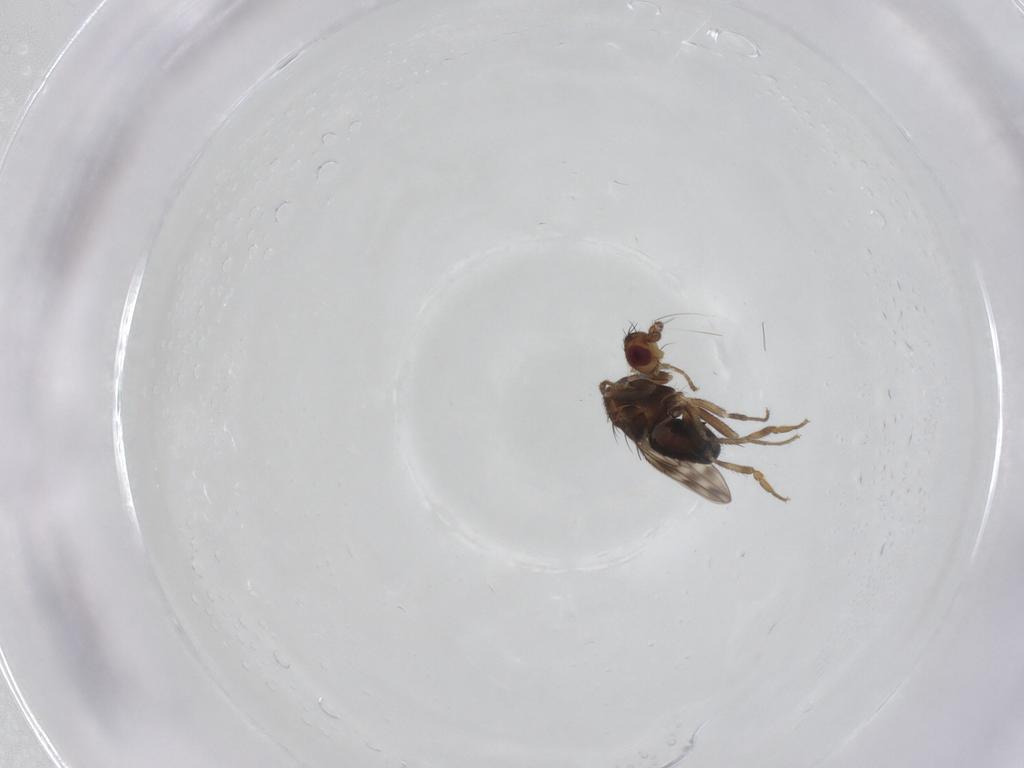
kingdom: Animalia
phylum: Arthropoda
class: Insecta
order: Diptera
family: Sphaeroceridae
